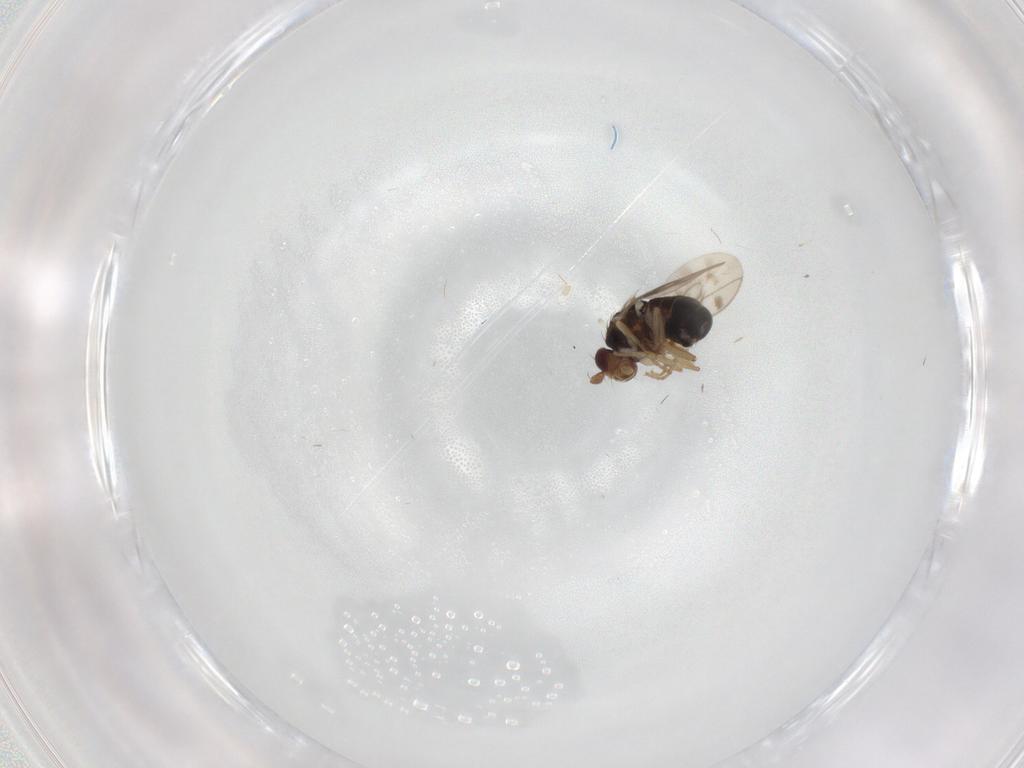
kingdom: Animalia
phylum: Arthropoda
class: Insecta
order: Diptera
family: Sphaeroceridae
